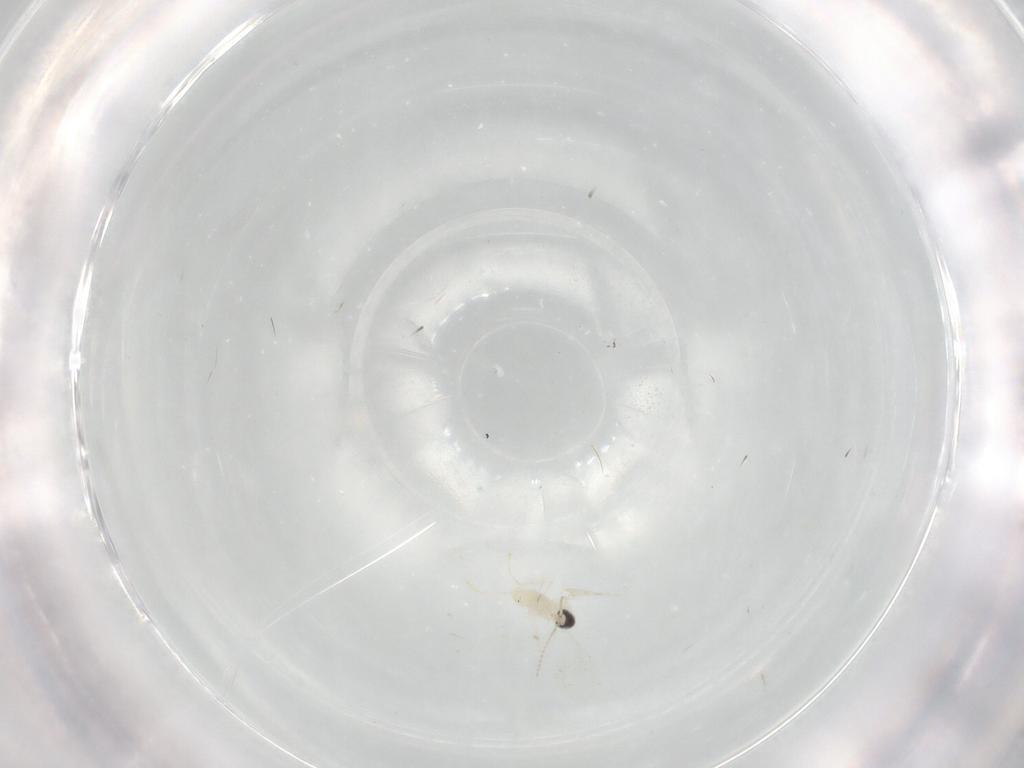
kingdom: Animalia
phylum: Arthropoda
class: Insecta
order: Diptera
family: Cecidomyiidae
